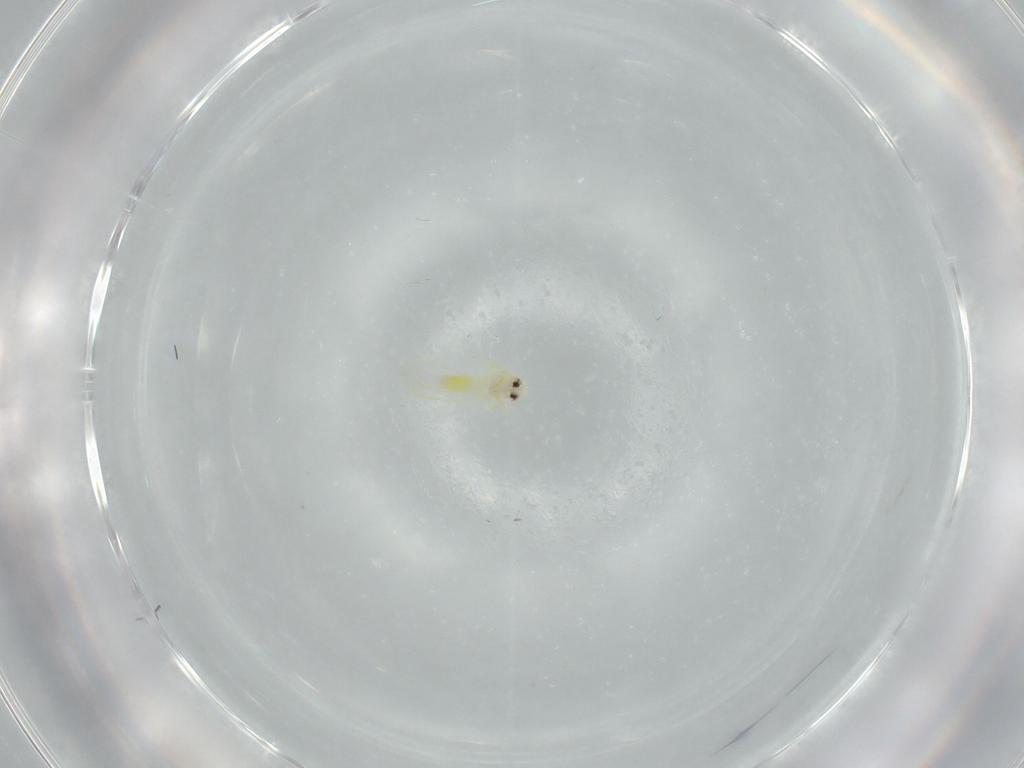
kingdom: Animalia
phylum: Arthropoda
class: Insecta
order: Hemiptera
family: Aleyrodidae
